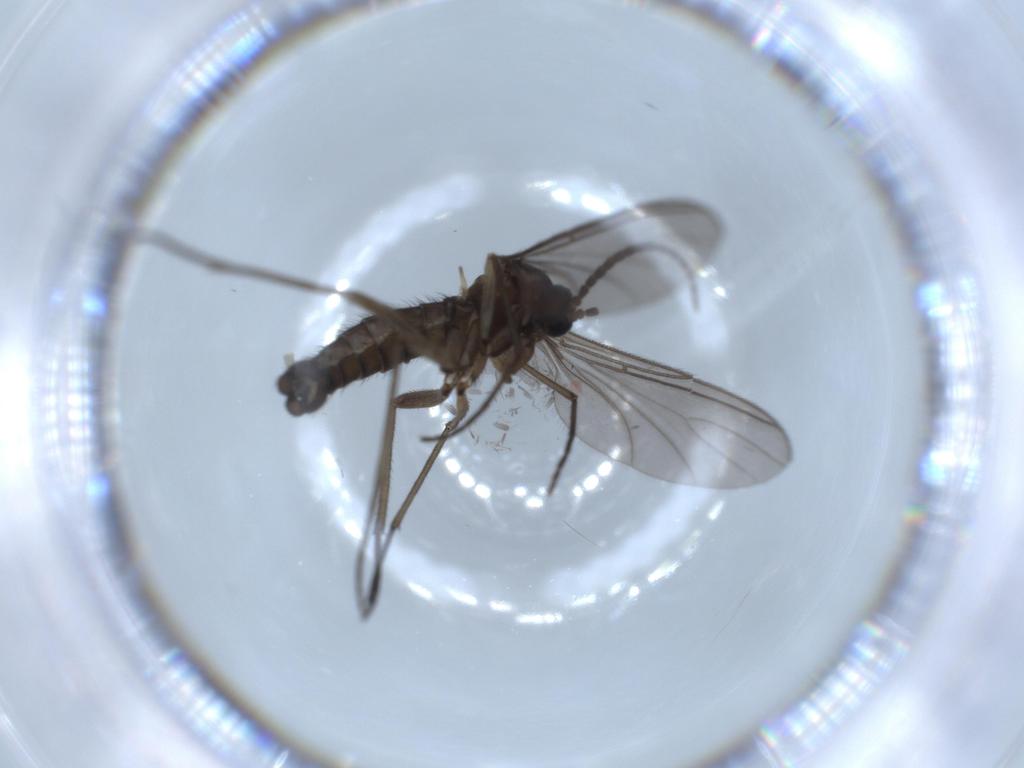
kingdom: Animalia
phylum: Arthropoda
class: Insecta
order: Diptera
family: Sciaridae
